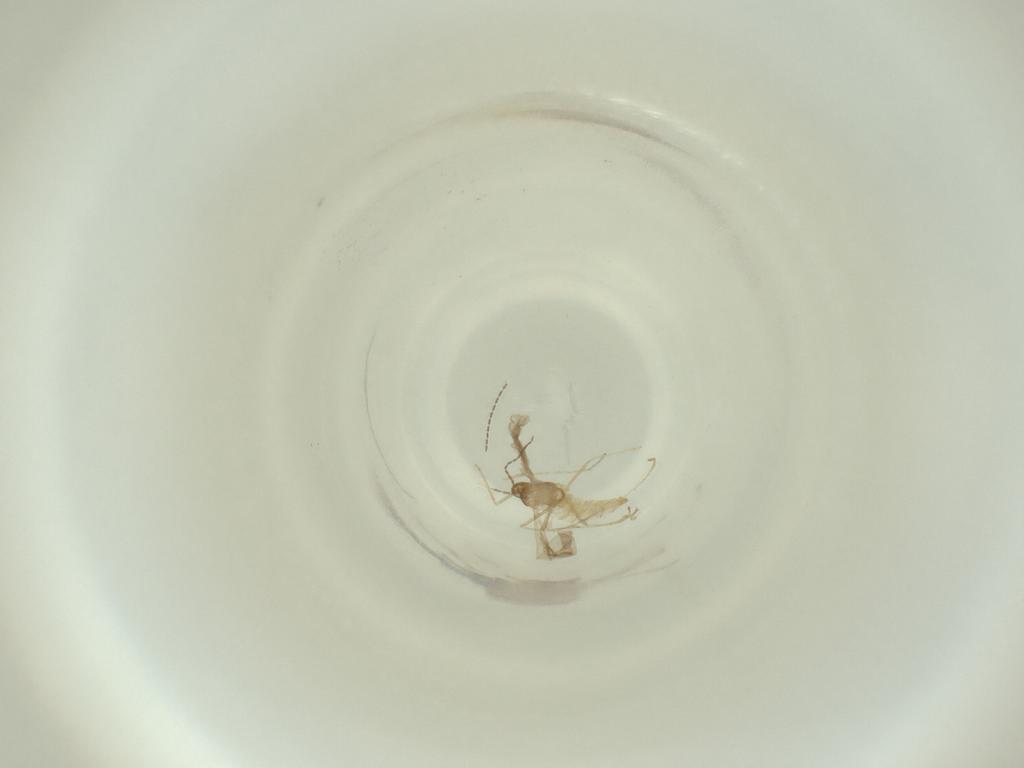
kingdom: Animalia
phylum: Arthropoda
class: Insecta
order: Diptera
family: Cecidomyiidae
